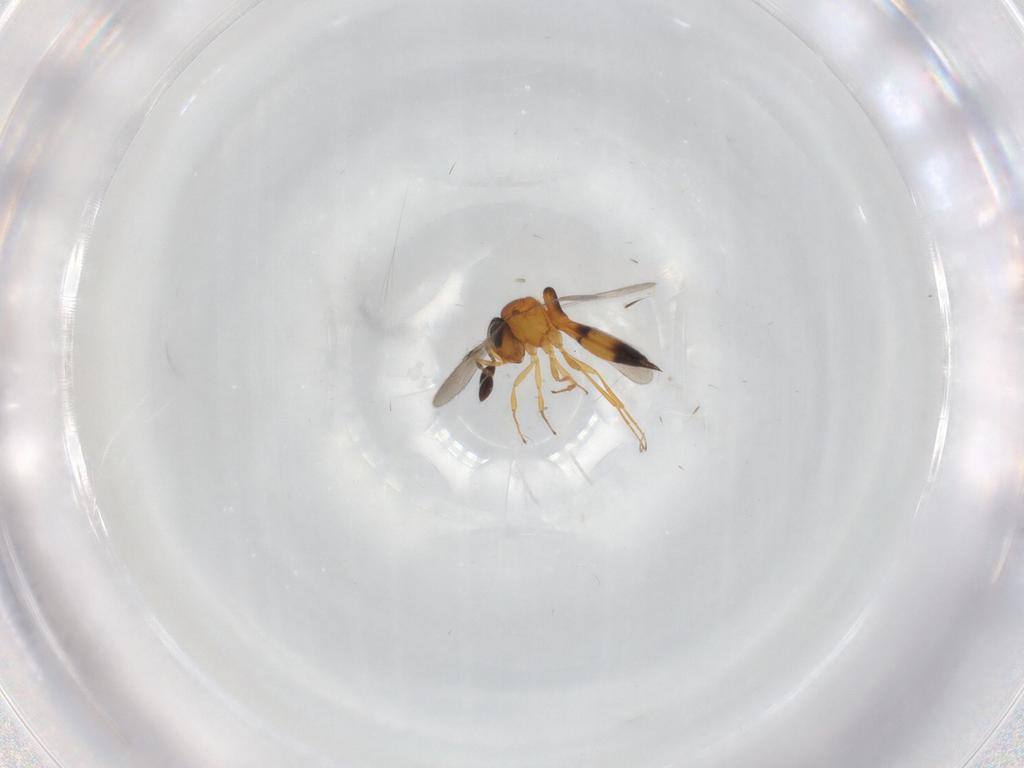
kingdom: Animalia
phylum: Arthropoda
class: Insecta
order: Hymenoptera
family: Scelionidae
